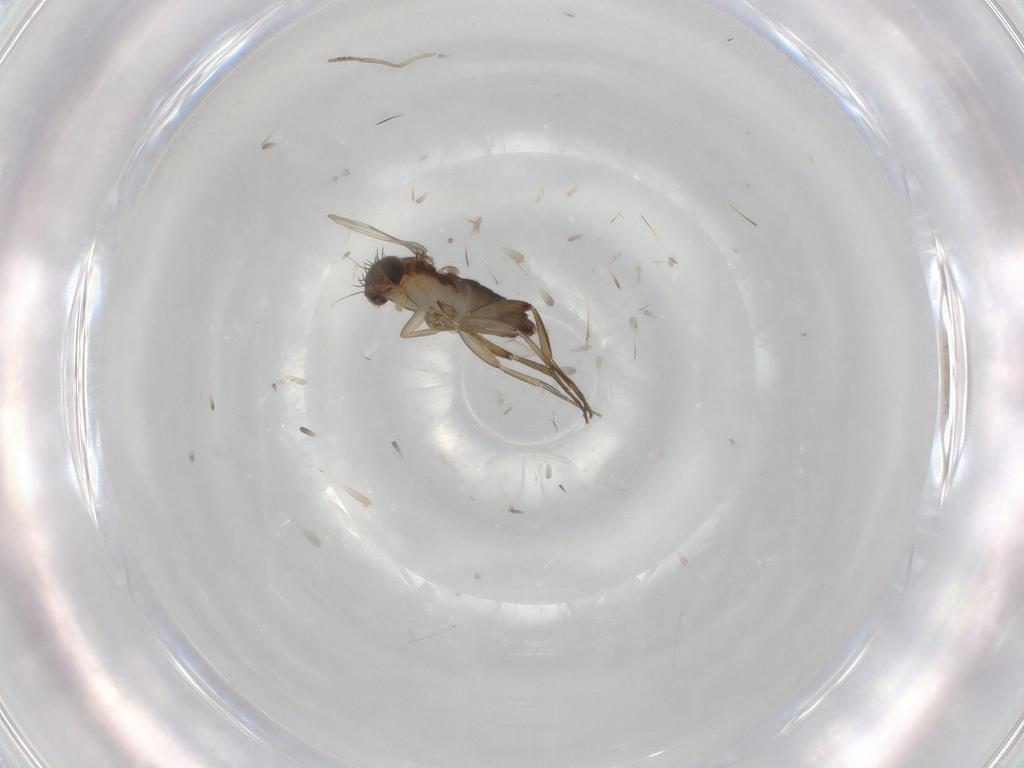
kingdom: Animalia
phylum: Arthropoda
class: Insecta
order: Diptera
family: Phoridae
